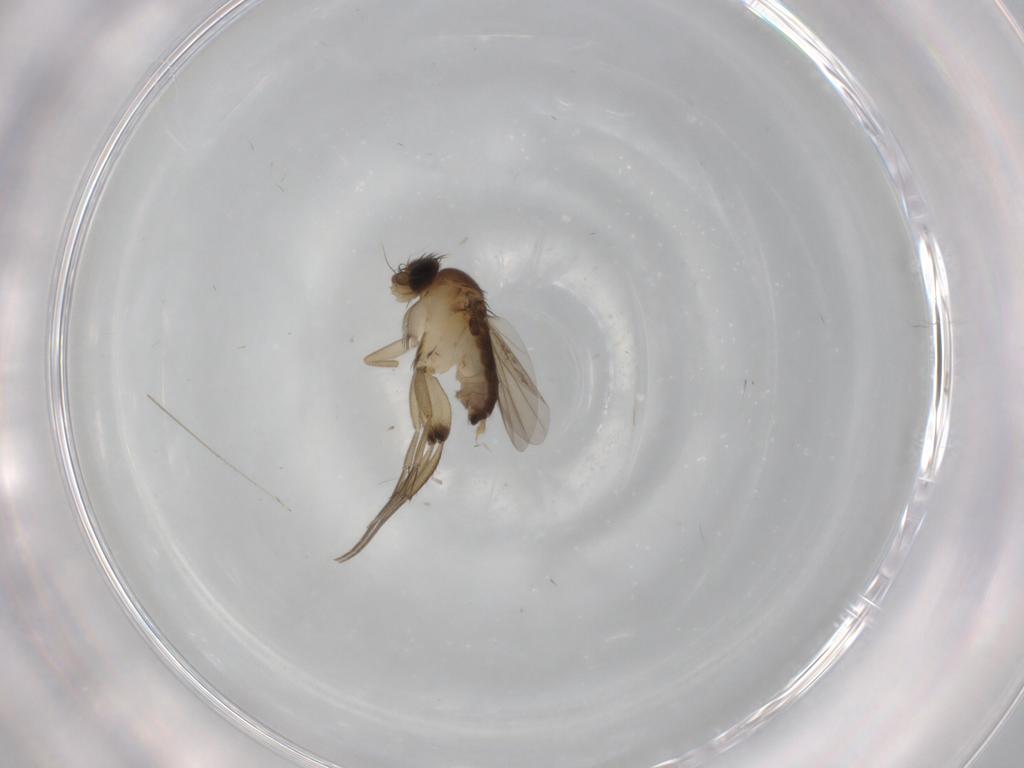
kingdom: Animalia
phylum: Arthropoda
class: Insecta
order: Diptera
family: Phoridae
